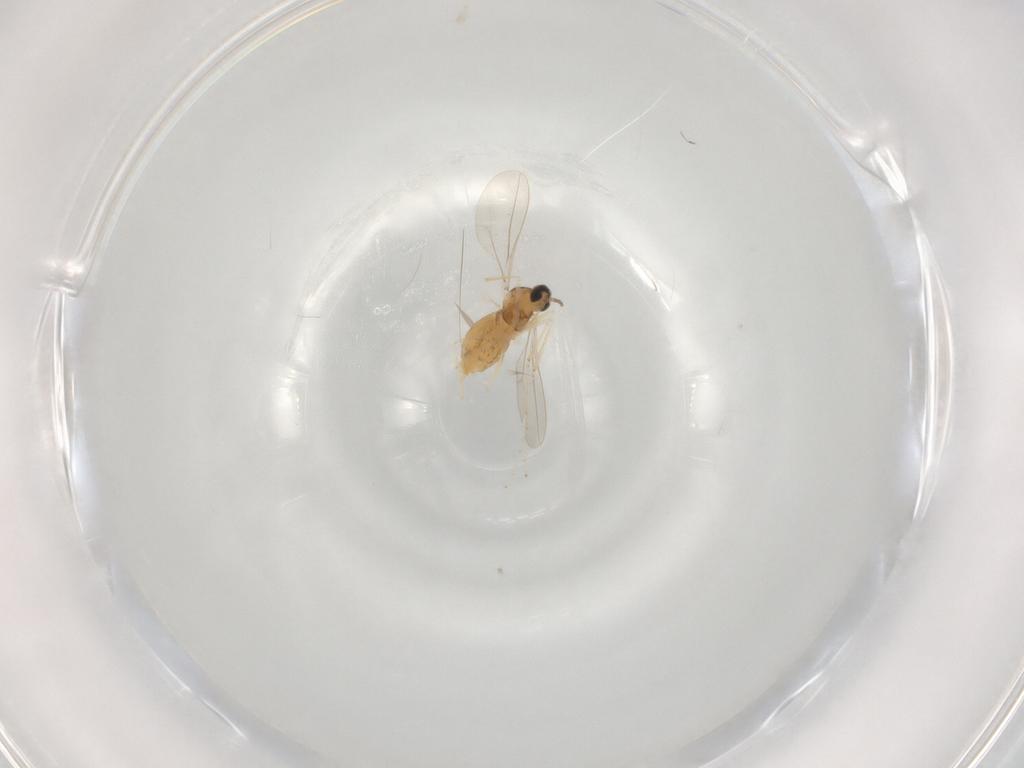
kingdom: Animalia
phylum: Arthropoda
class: Insecta
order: Diptera
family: Cecidomyiidae
